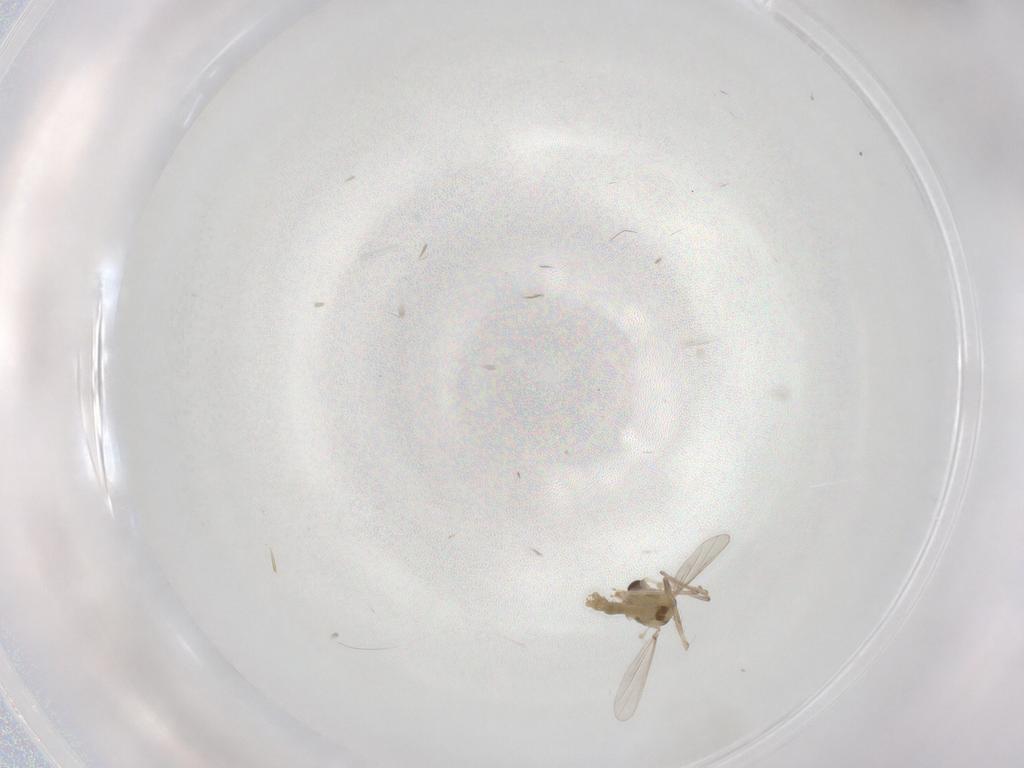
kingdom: Animalia
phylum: Arthropoda
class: Insecta
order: Diptera
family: Chironomidae
